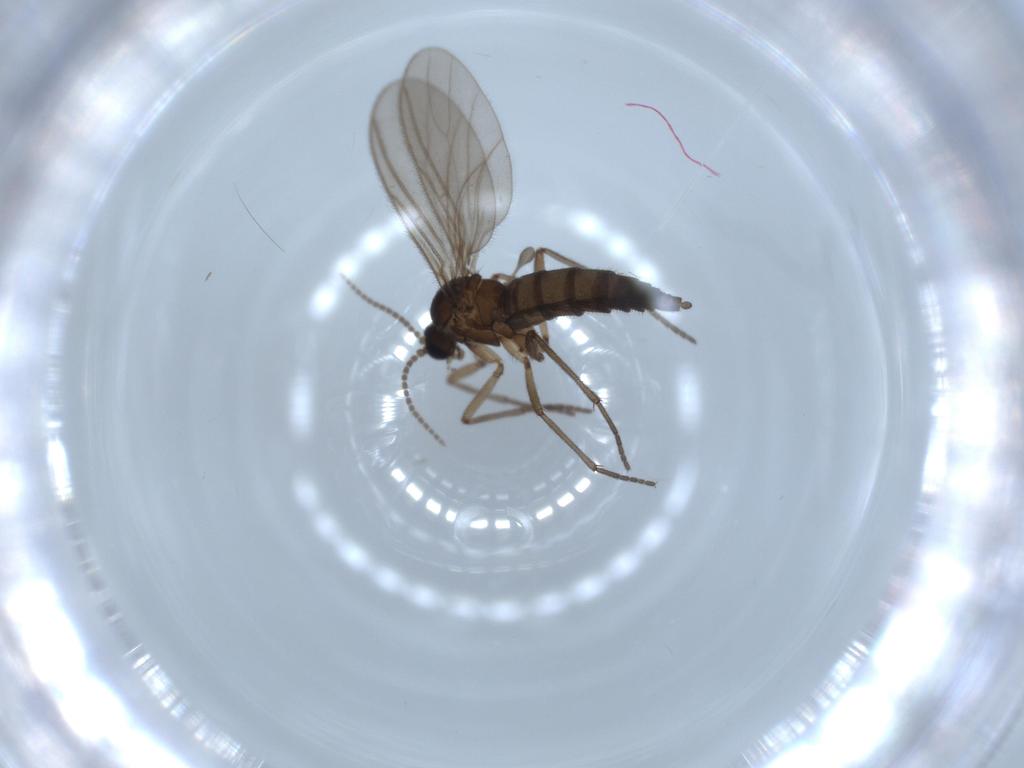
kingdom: Animalia
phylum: Arthropoda
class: Insecta
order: Diptera
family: Sciaridae
